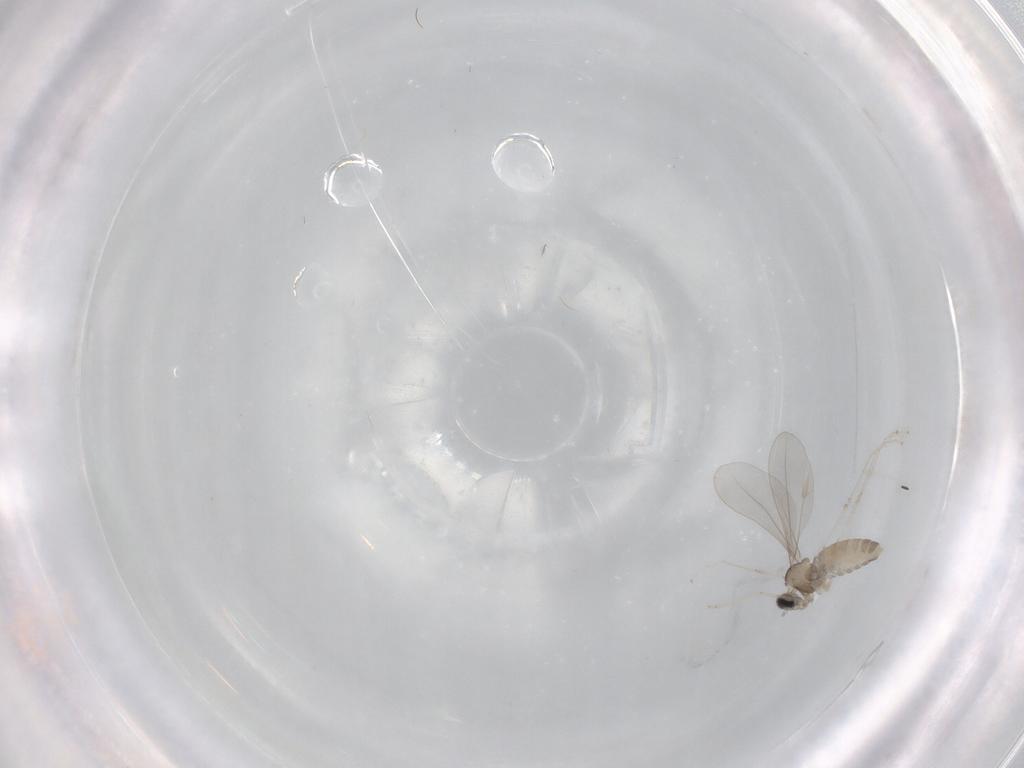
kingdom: Animalia
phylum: Arthropoda
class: Insecta
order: Diptera
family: Cecidomyiidae
